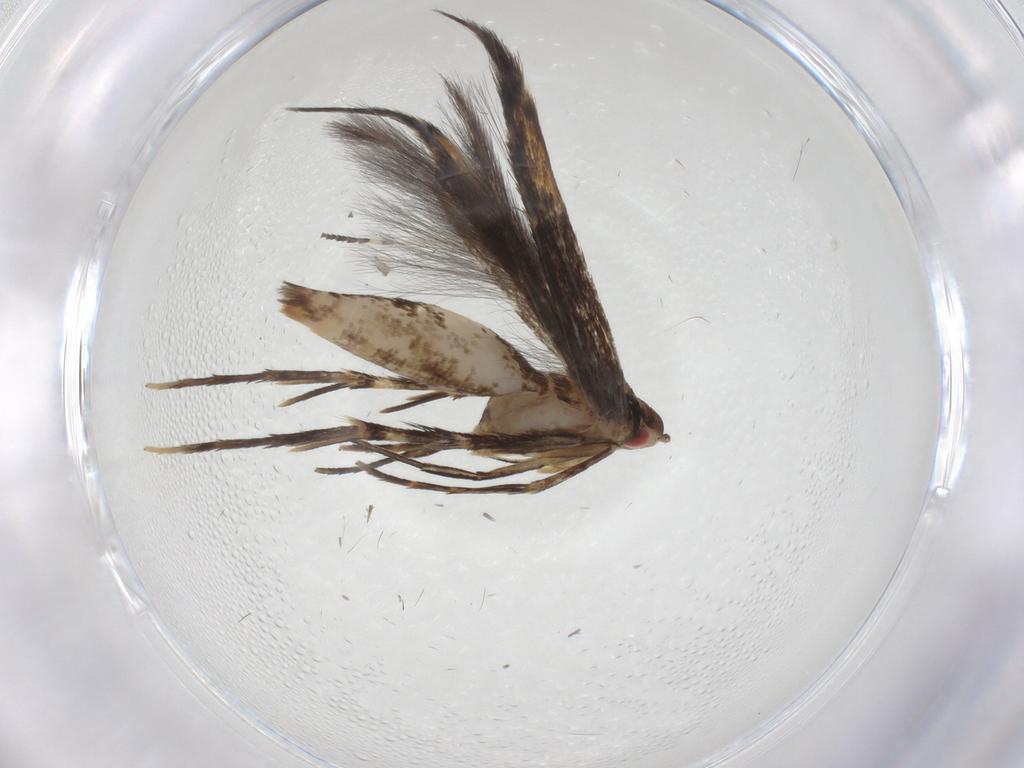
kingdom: Animalia
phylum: Arthropoda
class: Insecta
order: Lepidoptera
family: Cosmopterigidae
